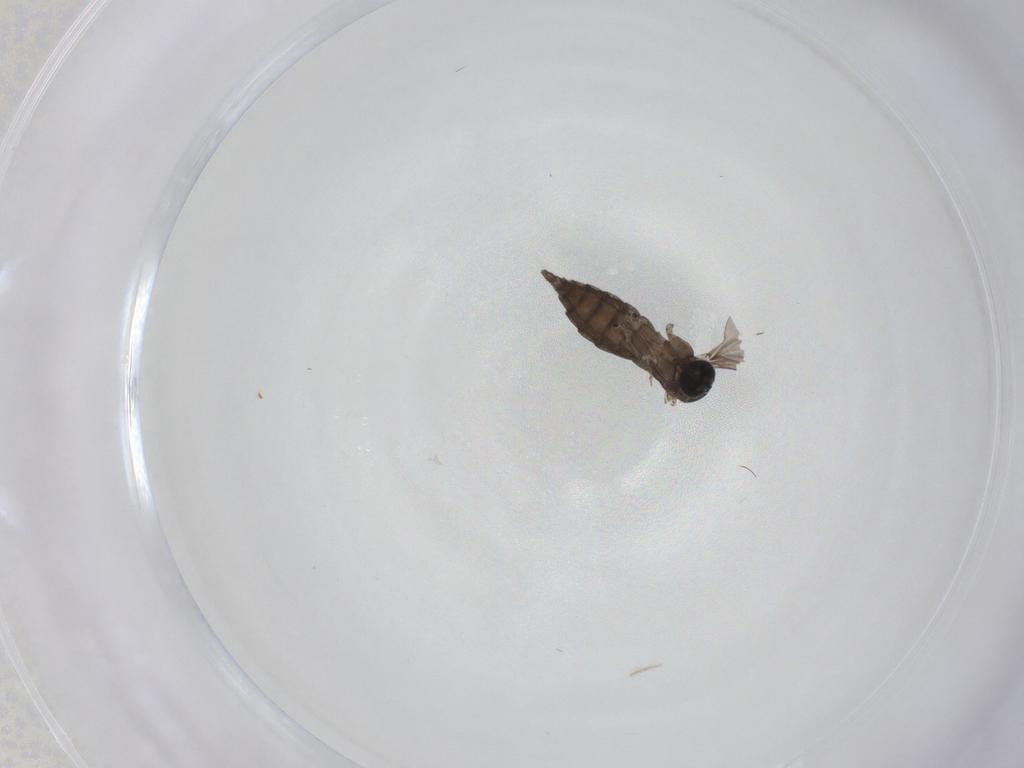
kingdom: Animalia
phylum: Arthropoda
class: Insecta
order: Diptera
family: Sciaridae
